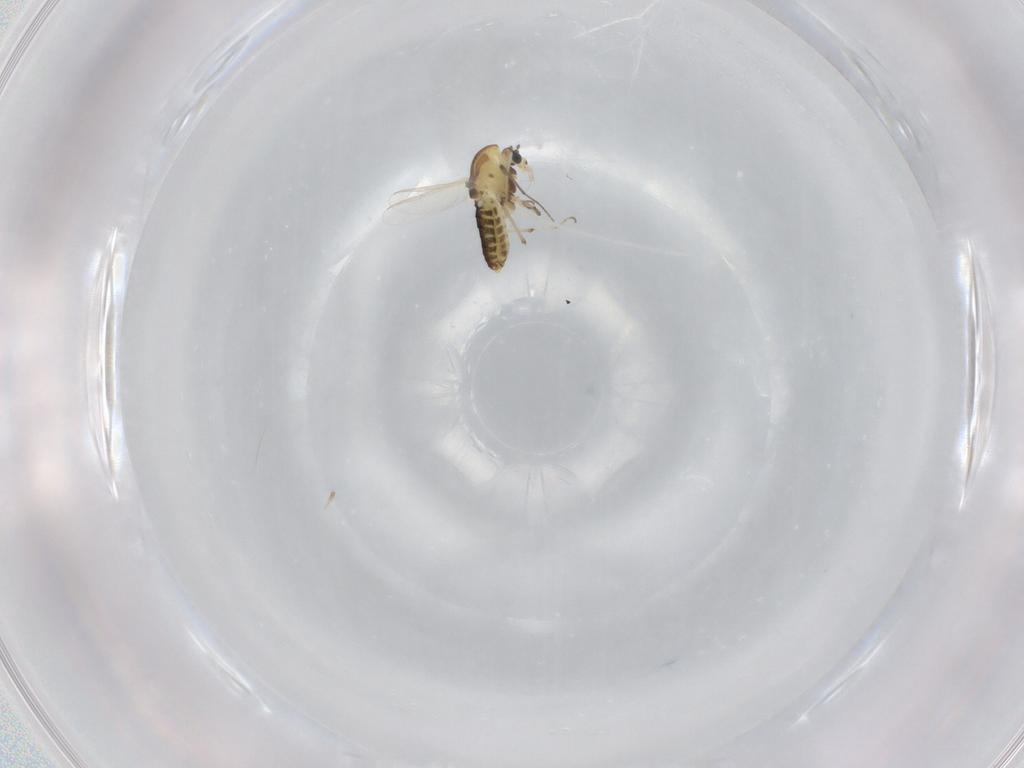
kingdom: Animalia
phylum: Arthropoda
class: Insecta
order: Diptera
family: Chironomidae
